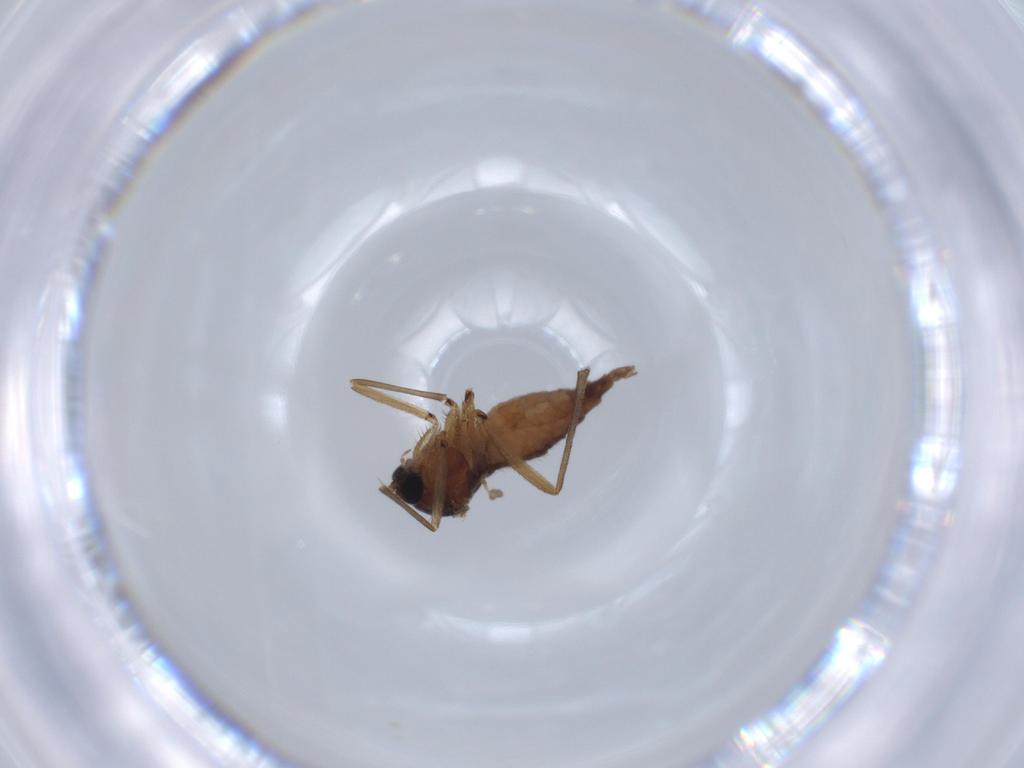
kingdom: Animalia
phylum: Arthropoda
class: Insecta
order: Diptera
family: Sciaridae
